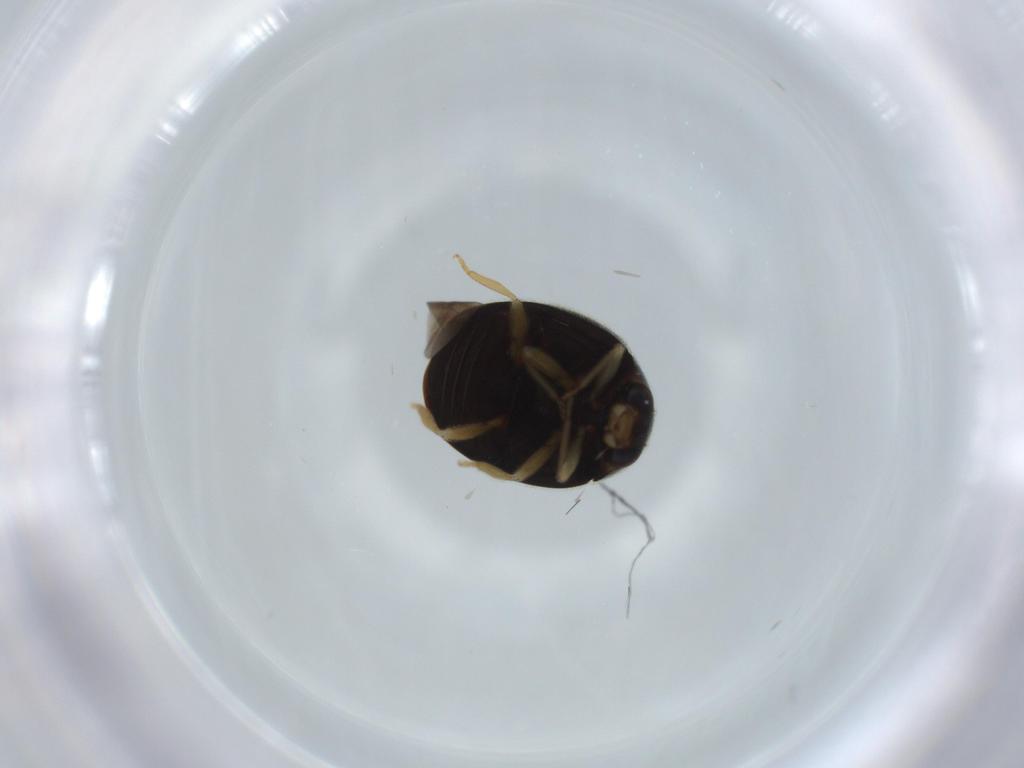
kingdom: Animalia
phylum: Arthropoda
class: Insecta
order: Coleoptera
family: Coccinellidae
